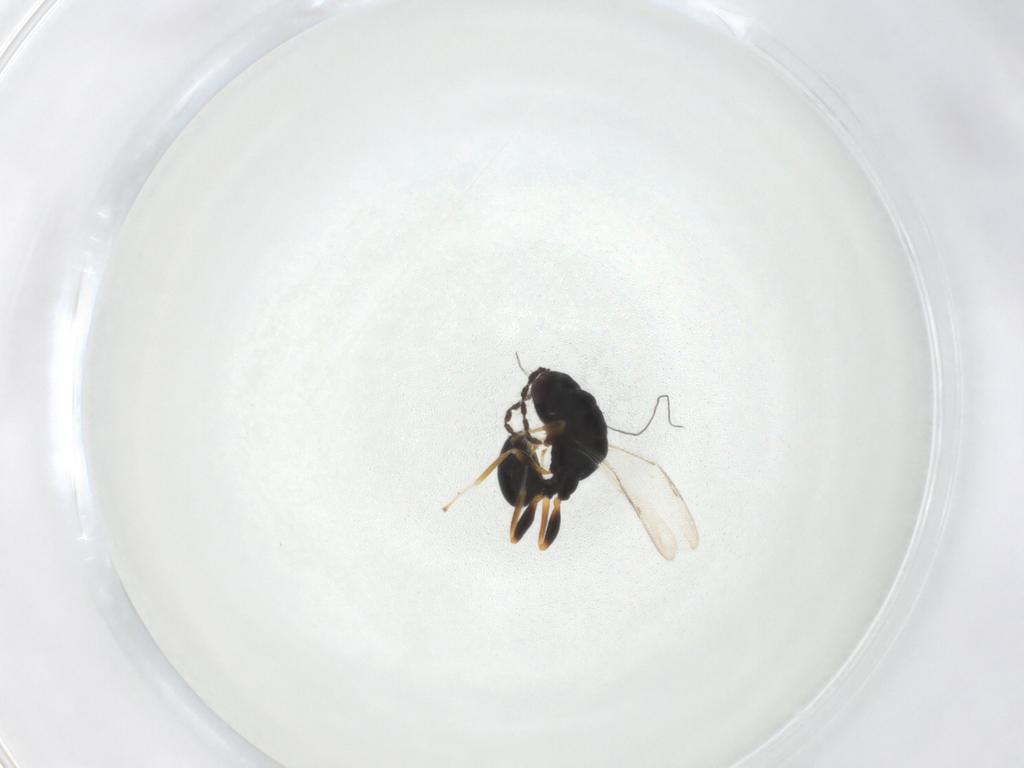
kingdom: Animalia
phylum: Arthropoda
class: Insecta
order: Hymenoptera
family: Eurytomidae
